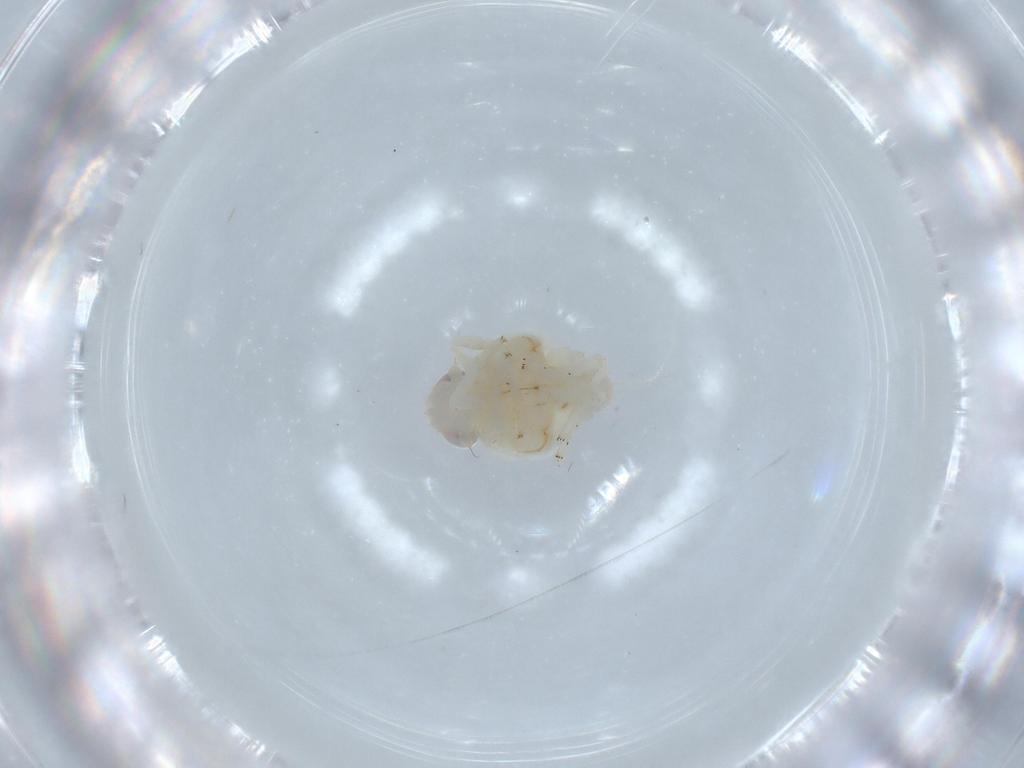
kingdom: Animalia
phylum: Arthropoda
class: Insecta
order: Hemiptera
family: Nogodinidae
